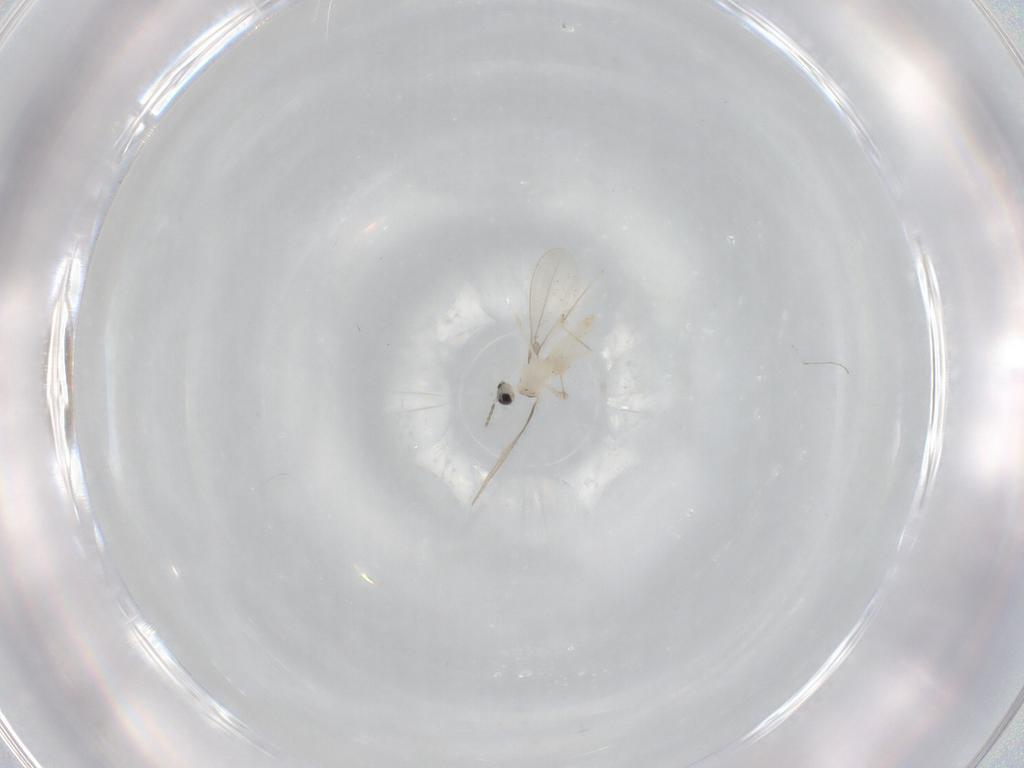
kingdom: Animalia
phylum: Arthropoda
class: Insecta
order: Diptera
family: Cecidomyiidae
